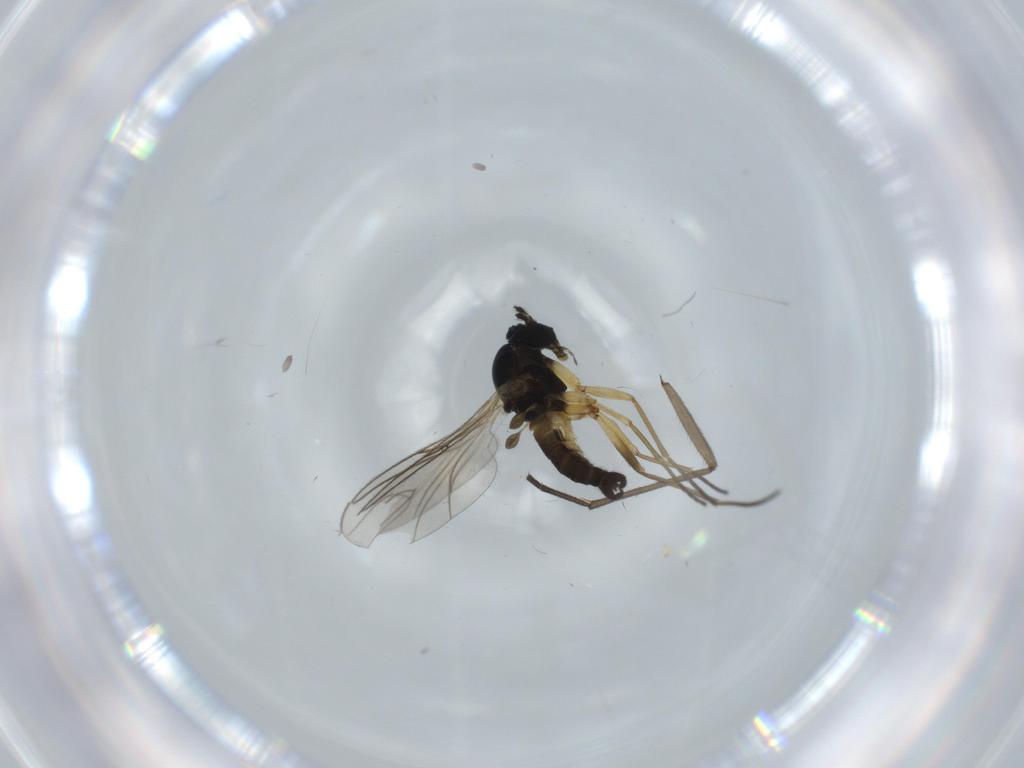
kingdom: Animalia
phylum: Arthropoda
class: Insecta
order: Diptera
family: Sciaridae
